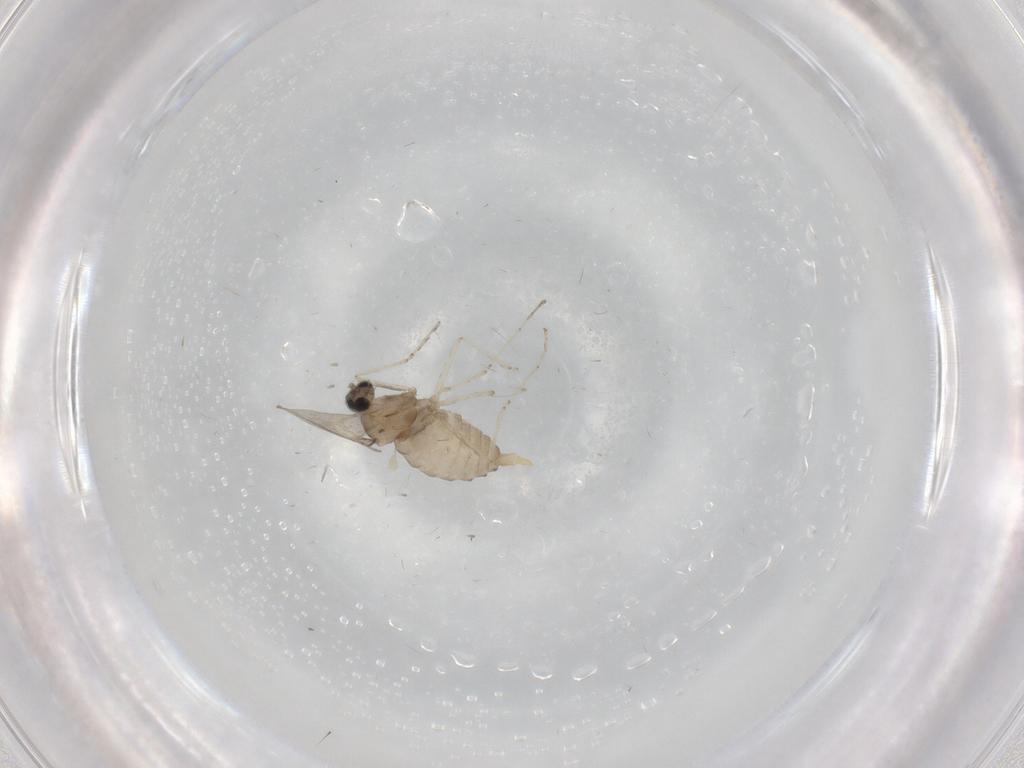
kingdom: Animalia
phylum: Arthropoda
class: Insecta
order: Diptera
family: Cecidomyiidae
